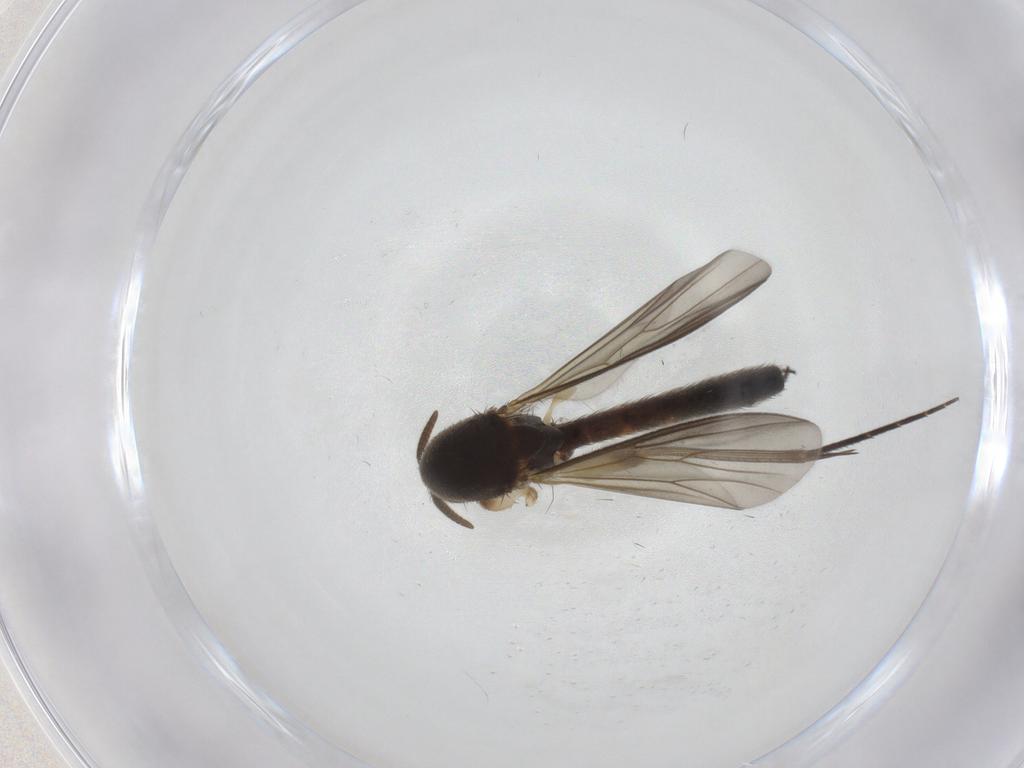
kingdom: Animalia
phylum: Arthropoda
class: Insecta
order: Diptera
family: Mycetophilidae
